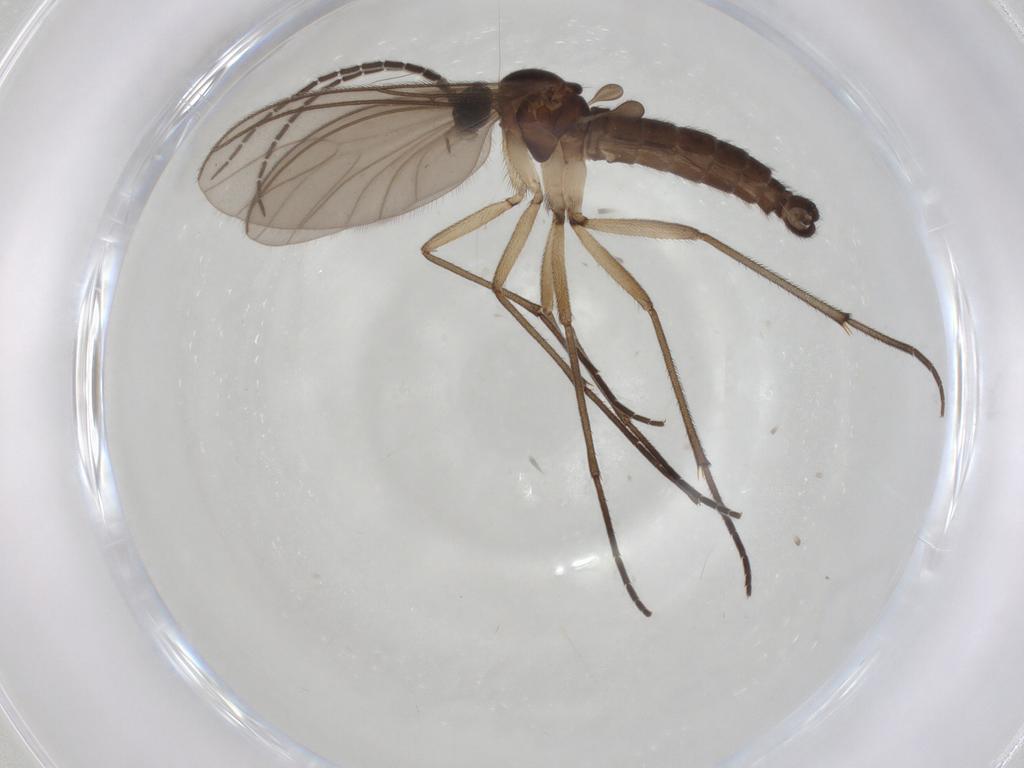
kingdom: Animalia
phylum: Arthropoda
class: Insecta
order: Diptera
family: Sciaridae
